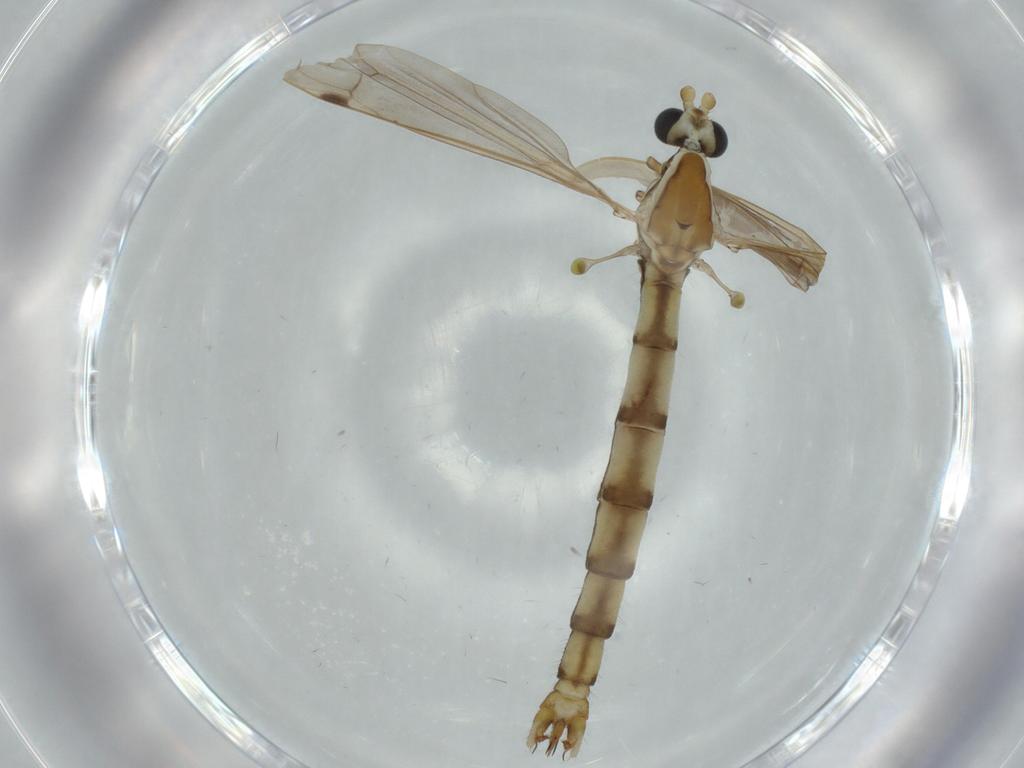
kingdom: Animalia
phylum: Arthropoda
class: Insecta
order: Diptera
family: Sciaridae
